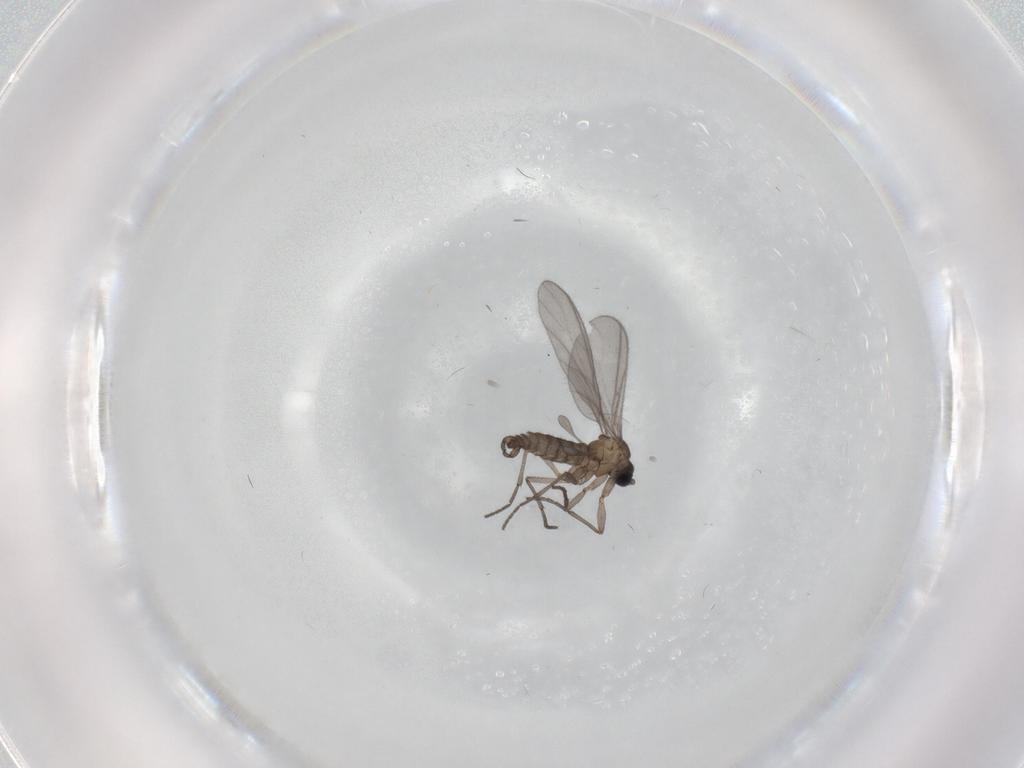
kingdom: Animalia
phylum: Arthropoda
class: Insecta
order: Diptera
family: Sciaridae
